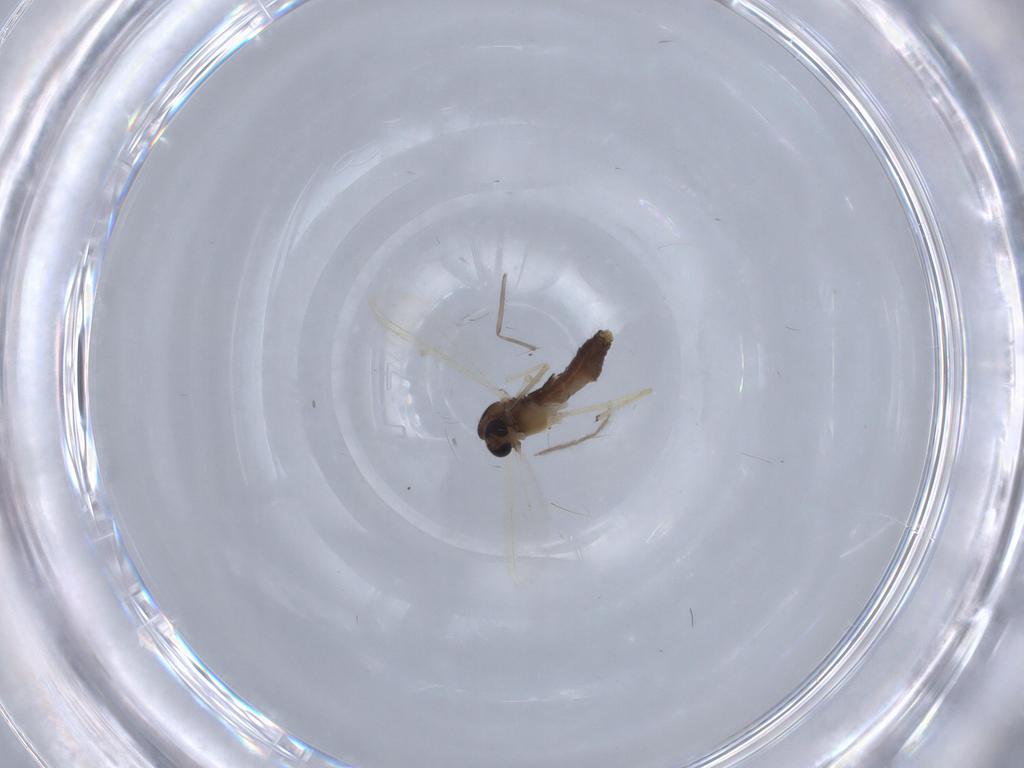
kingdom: Animalia
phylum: Arthropoda
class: Insecta
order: Diptera
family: Chironomidae
